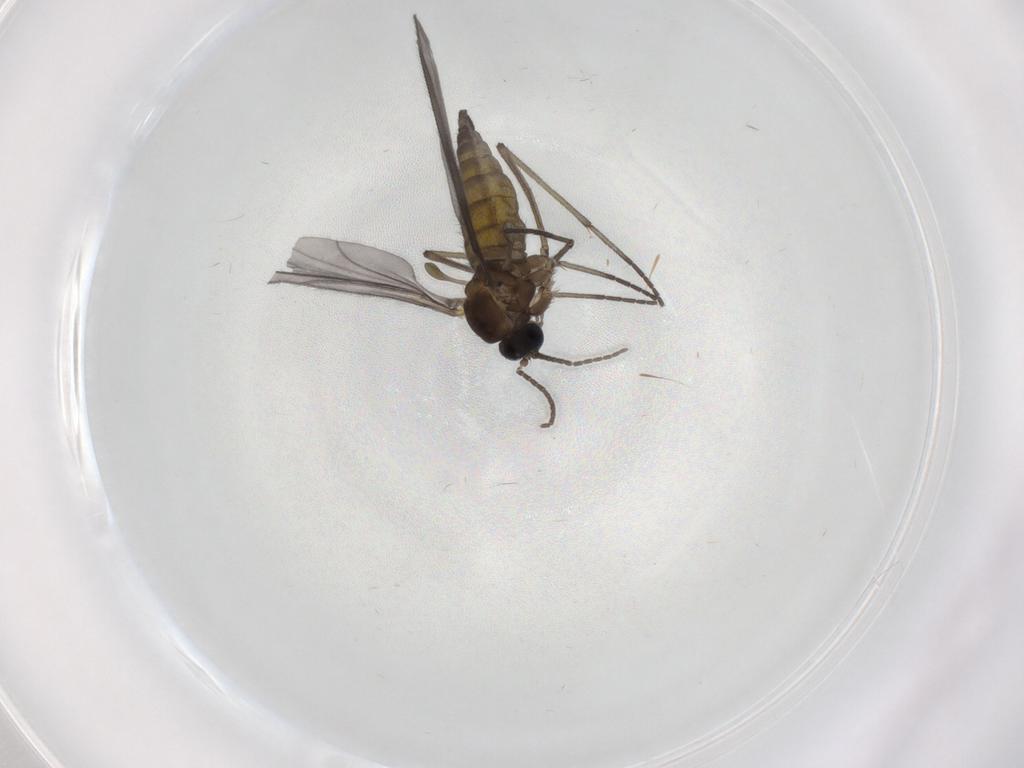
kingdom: Animalia
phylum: Arthropoda
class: Insecta
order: Diptera
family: Sciaridae
